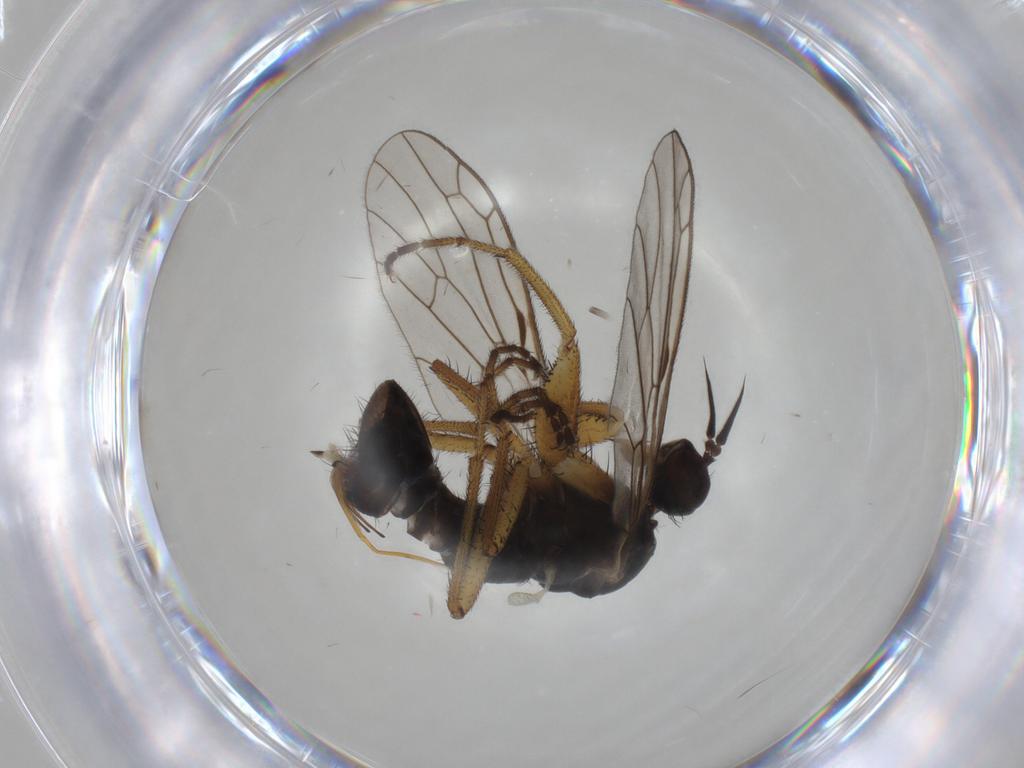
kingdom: Animalia
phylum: Arthropoda
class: Insecta
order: Diptera
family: Empididae
